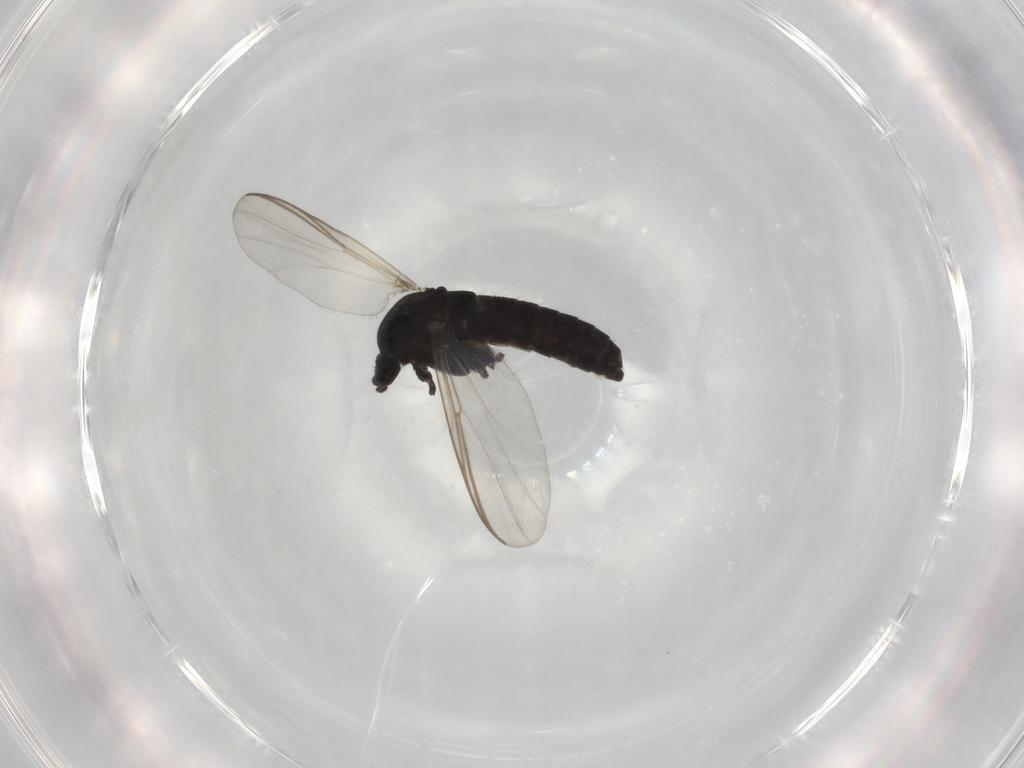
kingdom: Animalia
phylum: Arthropoda
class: Insecta
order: Diptera
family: Chironomidae
